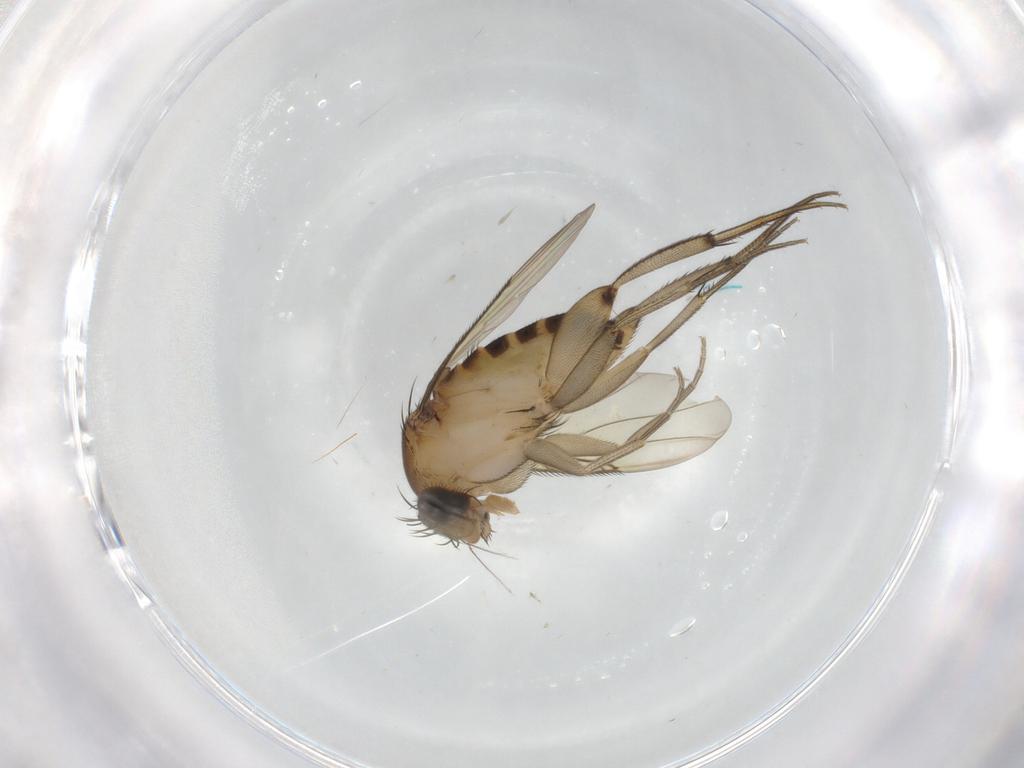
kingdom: Animalia
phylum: Arthropoda
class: Insecta
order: Diptera
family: Phoridae
